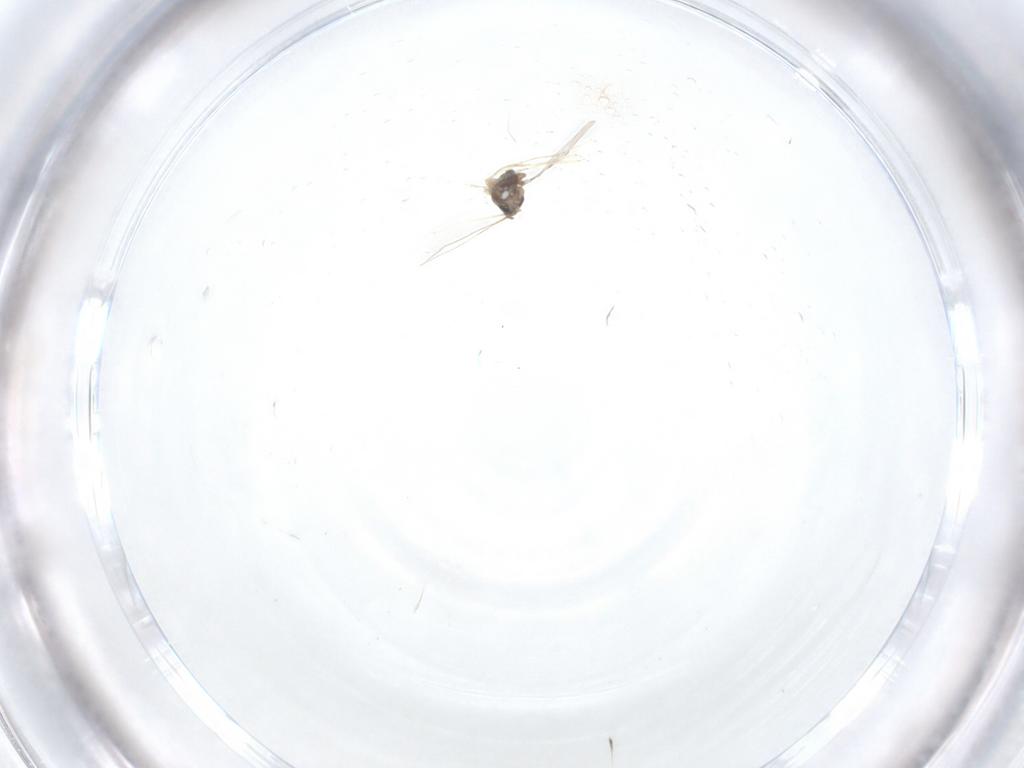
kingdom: Animalia
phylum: Arthropoda
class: Insecta
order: Diptera
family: Cecidomyiidae
